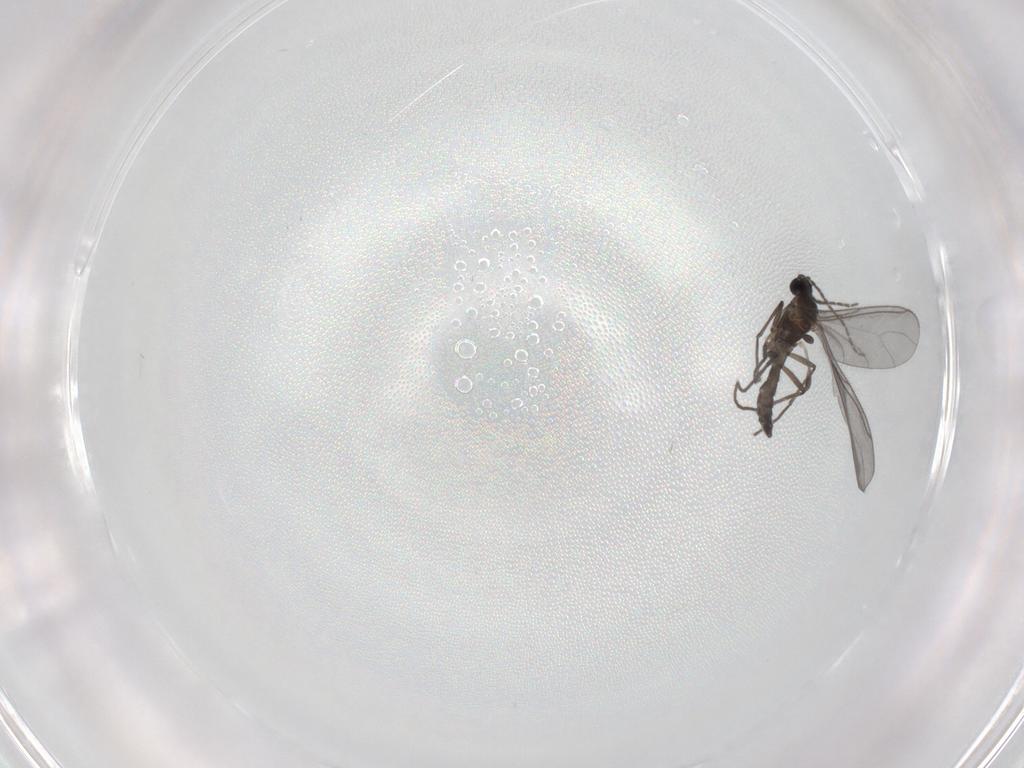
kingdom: Animalia
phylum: Arthropoda
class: Insecta
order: Diptera
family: Sciaridae
